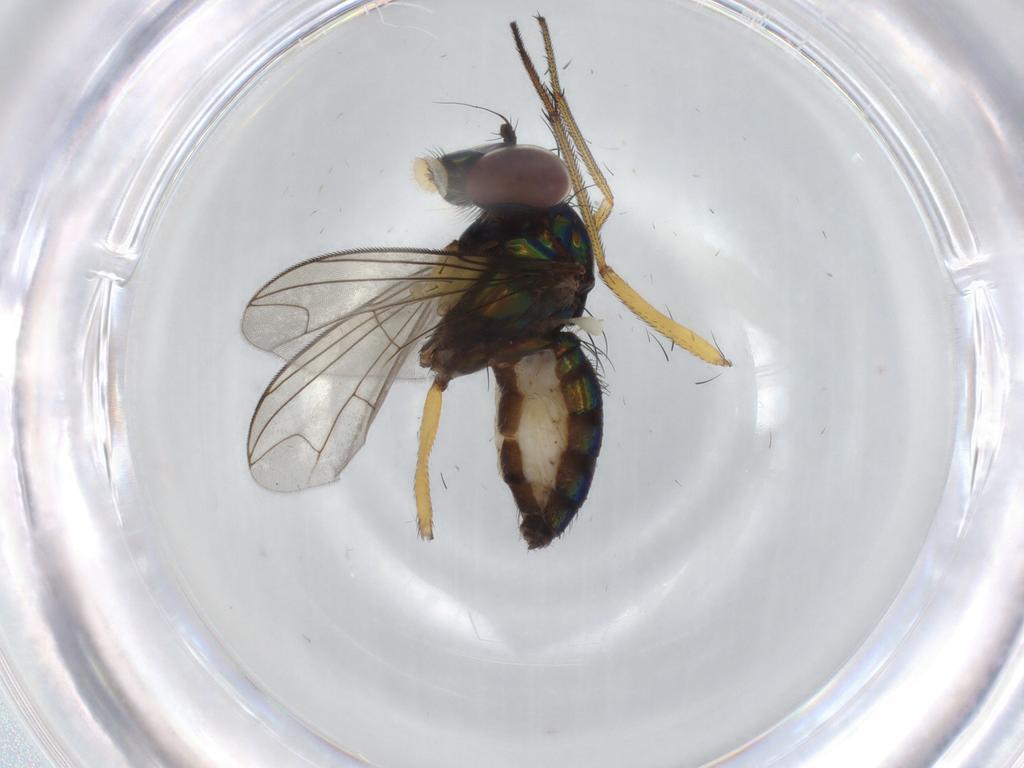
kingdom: Animalia
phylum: Arthropoda
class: Insecta
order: Diptera
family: Dolichopodidae
